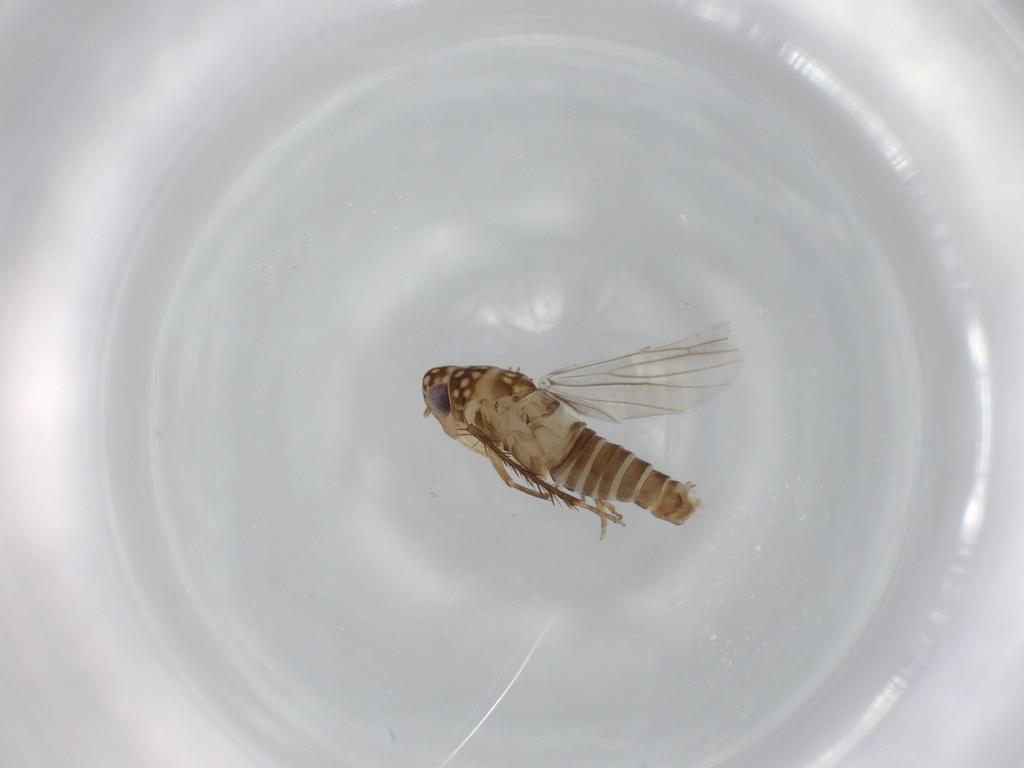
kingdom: Animalia
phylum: Arthropoda
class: Insecta
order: Hemiptera
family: Cicadellidae
